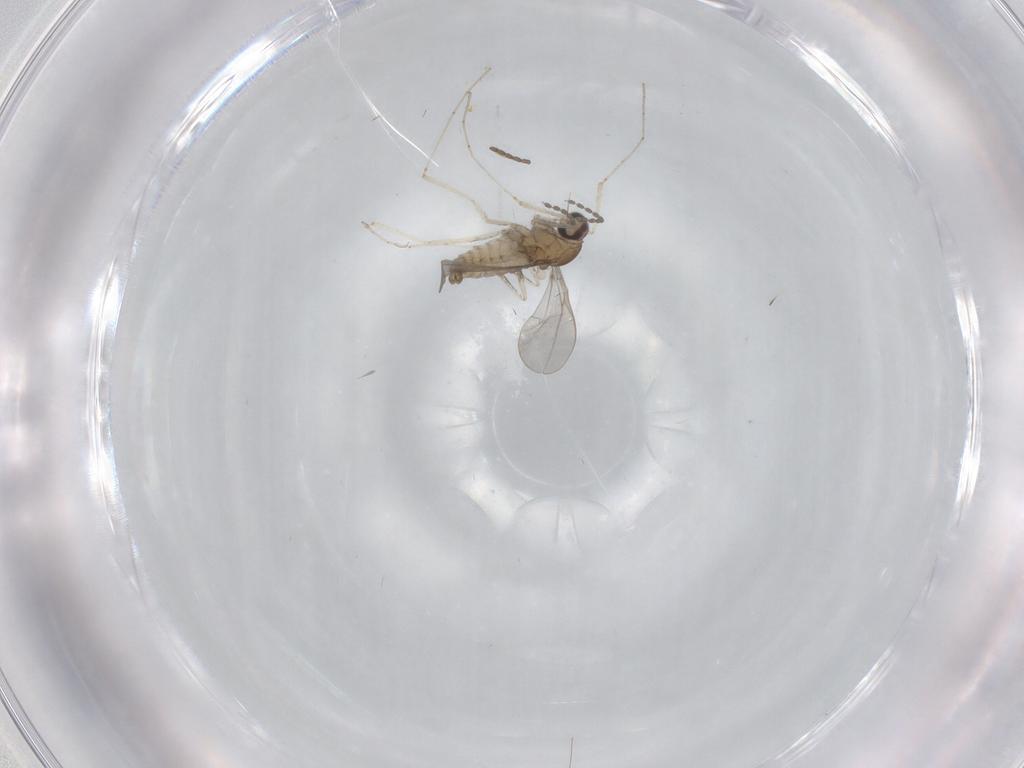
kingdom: Animalia
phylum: Arthropoda
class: Insecta
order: Diptera
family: Cecidomyiidae
